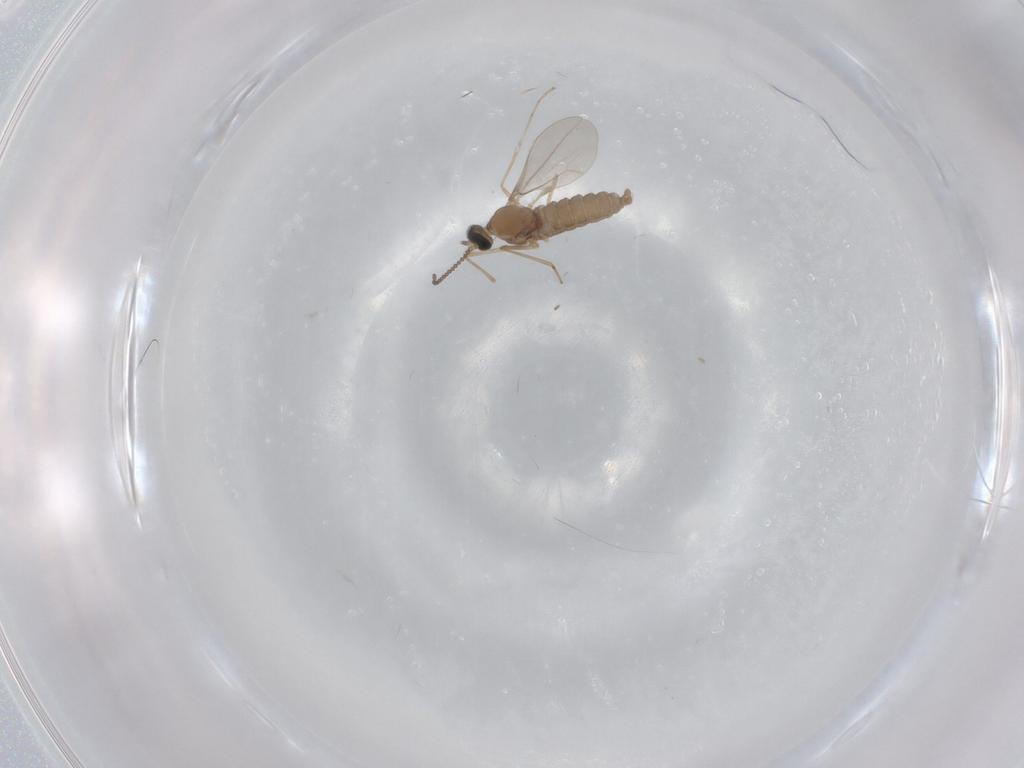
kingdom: Animalia
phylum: Arthropoda
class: Insecta
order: Diptera
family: Cecidomyiidae
